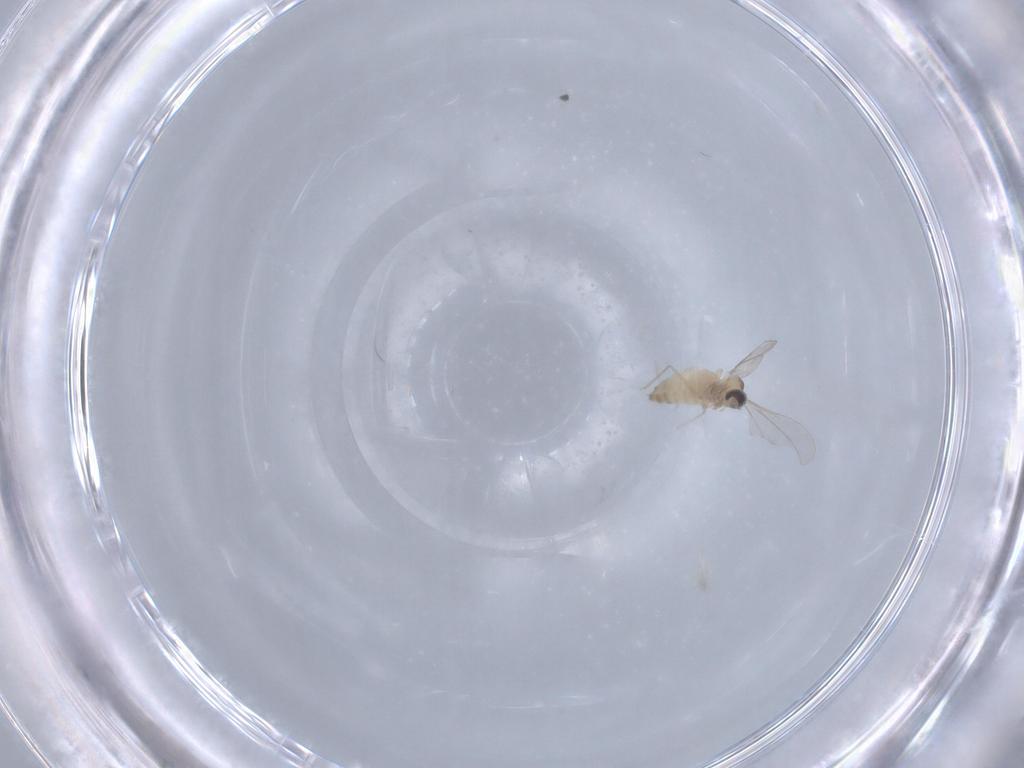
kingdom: Animalia
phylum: Arthropoda
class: Insecta
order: Diptera
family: Cecidomyiidae
